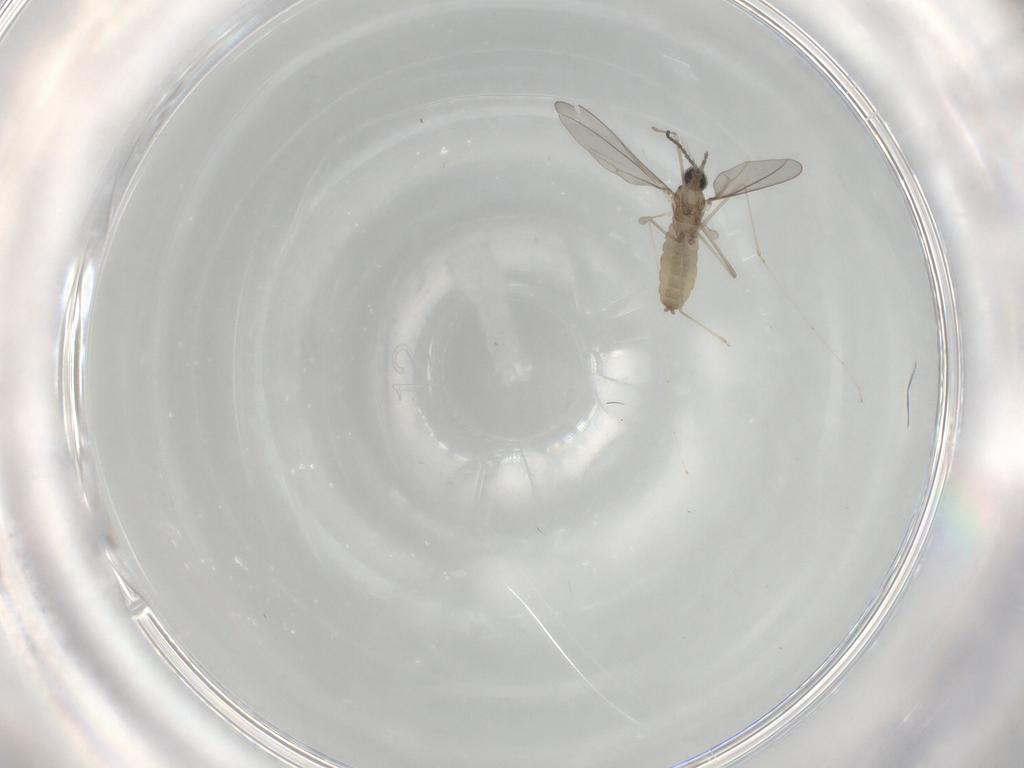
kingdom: Animalia
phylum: Arthropoda
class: Insecta
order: Diptera
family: Cecidomyiidae
